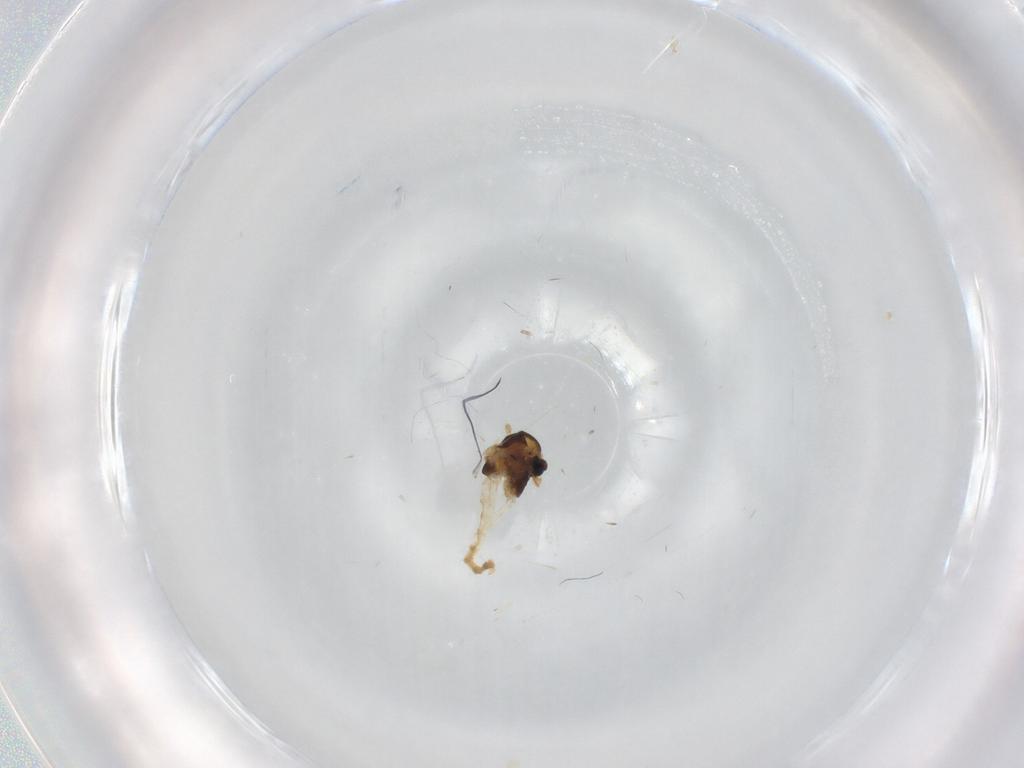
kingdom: Animalia
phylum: Arthropoda
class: Insecta
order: Diptera
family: Chironomidae
